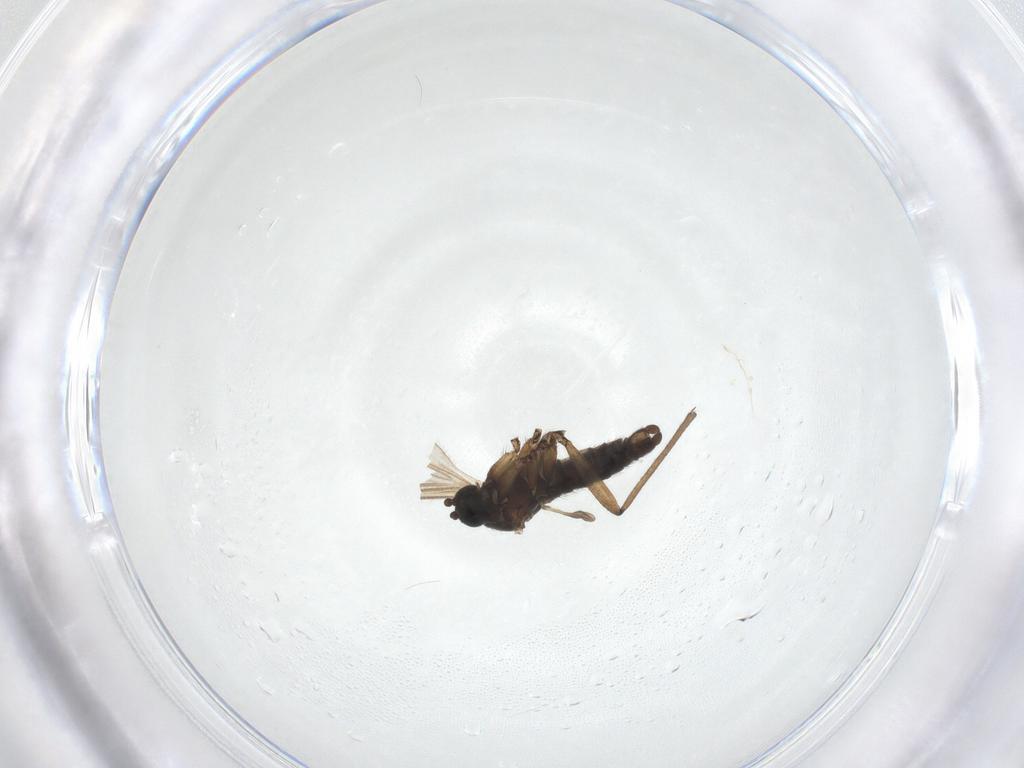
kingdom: Animalia
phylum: Arthropoda
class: Insecta
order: Diptera
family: Sciaridae
